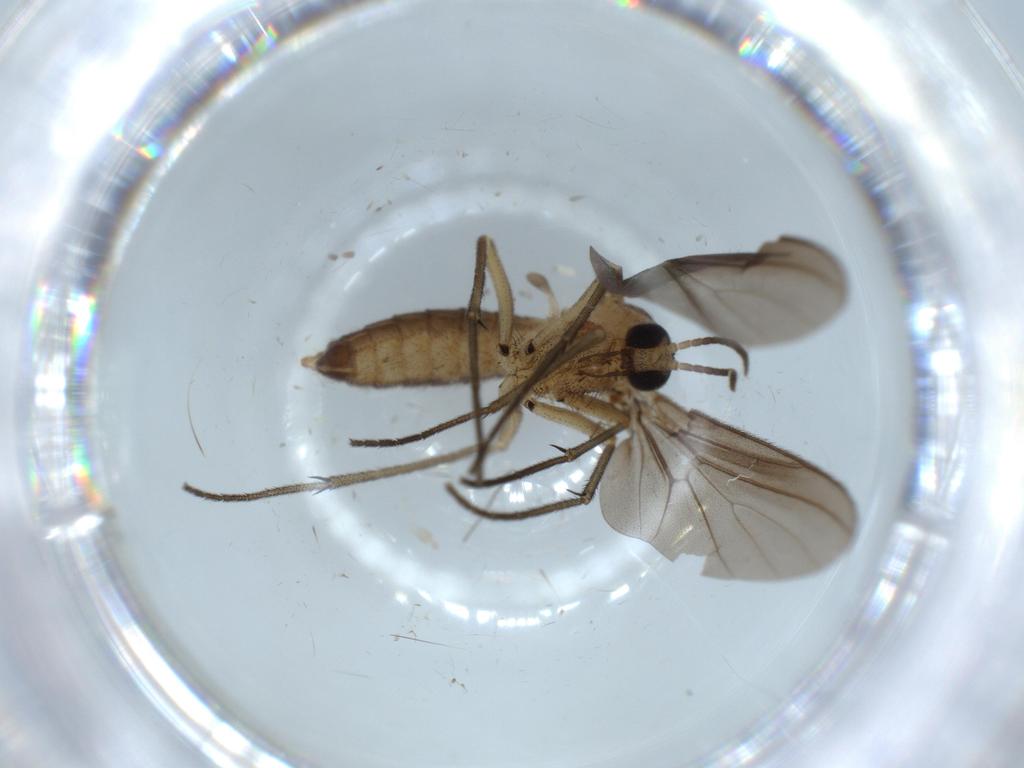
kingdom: Animalia
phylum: Arthropoda
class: Insecta
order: Diptera
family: Chironomidae
